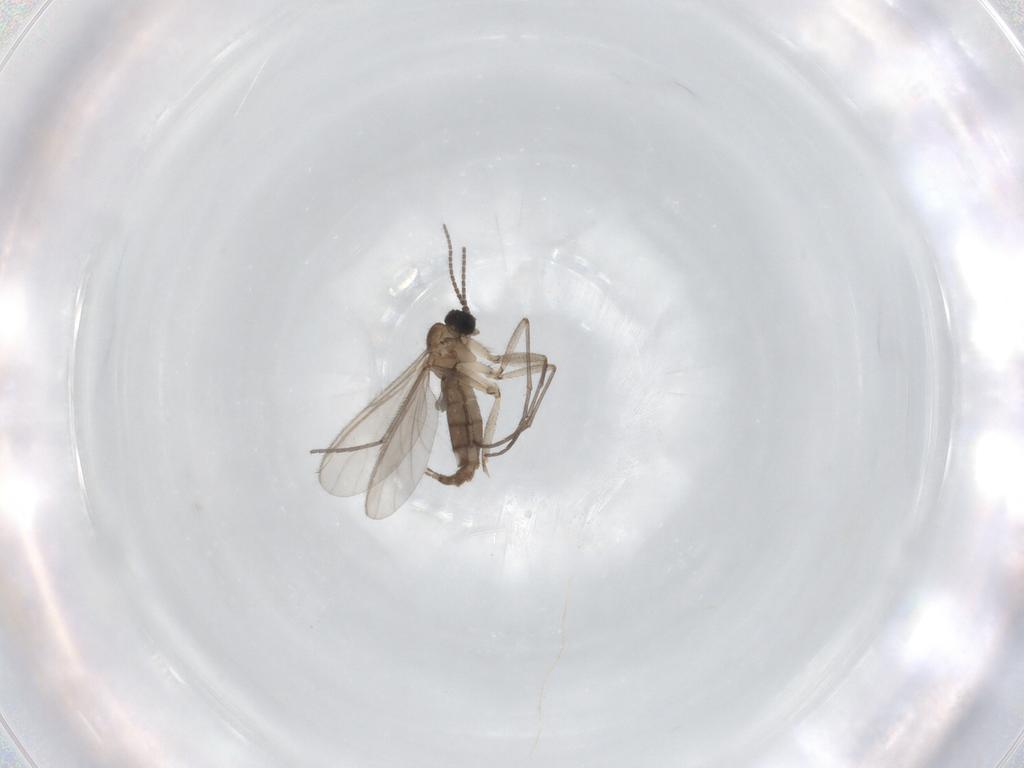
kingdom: Animalia
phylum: Arthropoda
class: Insecta
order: Diptera
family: Sciaridae
